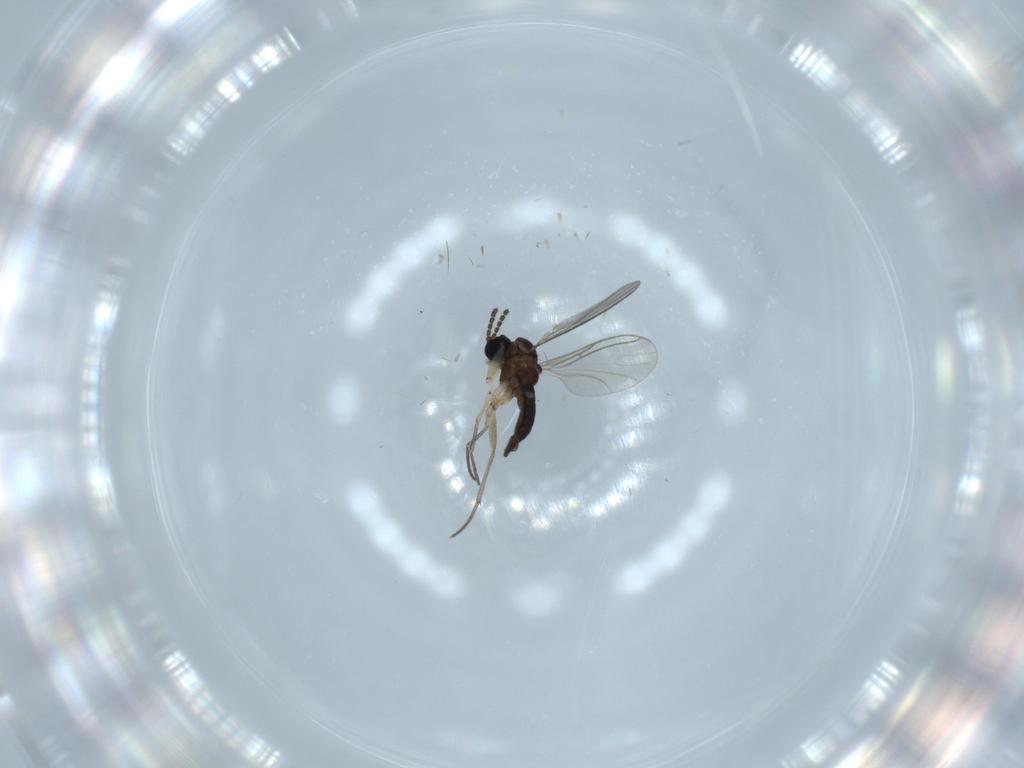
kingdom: Animalia
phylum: Arthropoda
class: Insecta
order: Diptera
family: Sciaridae
